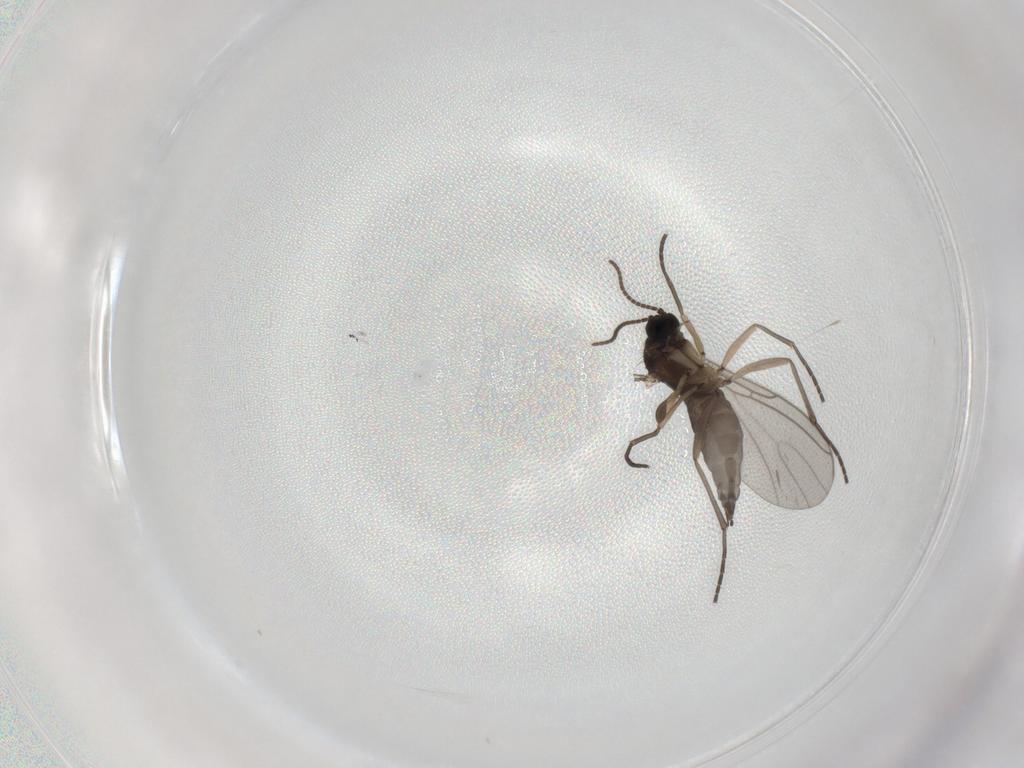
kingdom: Animalia
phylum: Arthropoda
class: Insecta
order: Diptera
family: Sciaridae
